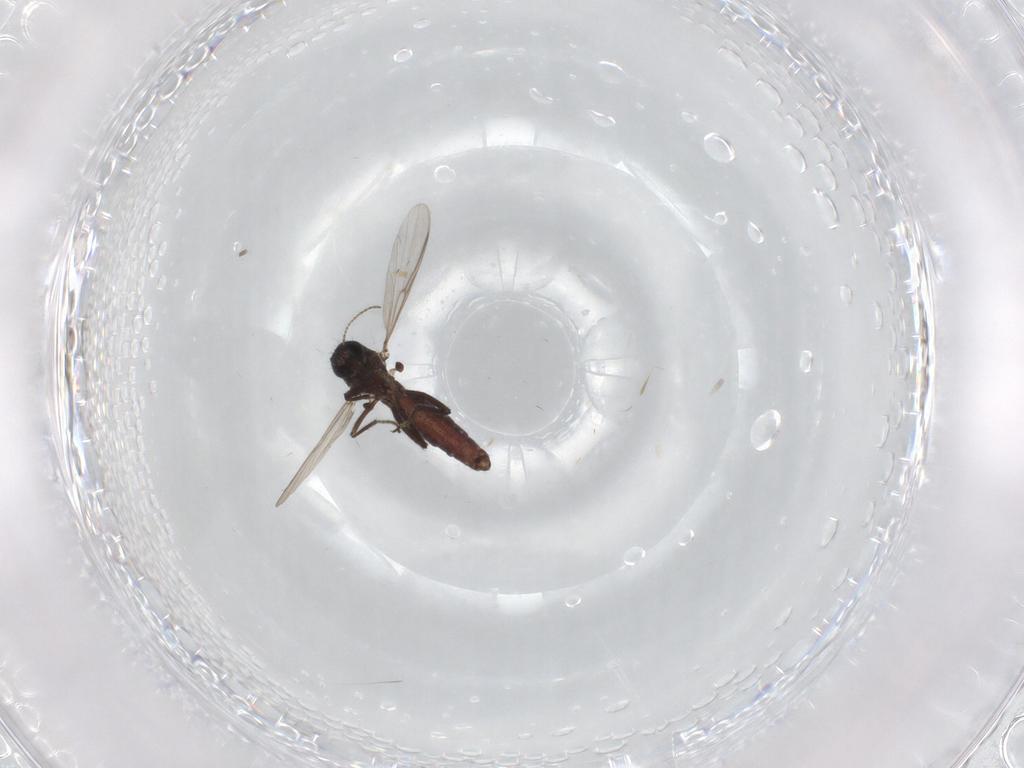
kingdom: Animalia
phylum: Arthropoda
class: Insecta
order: Diptera
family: Ceratopogonidae
